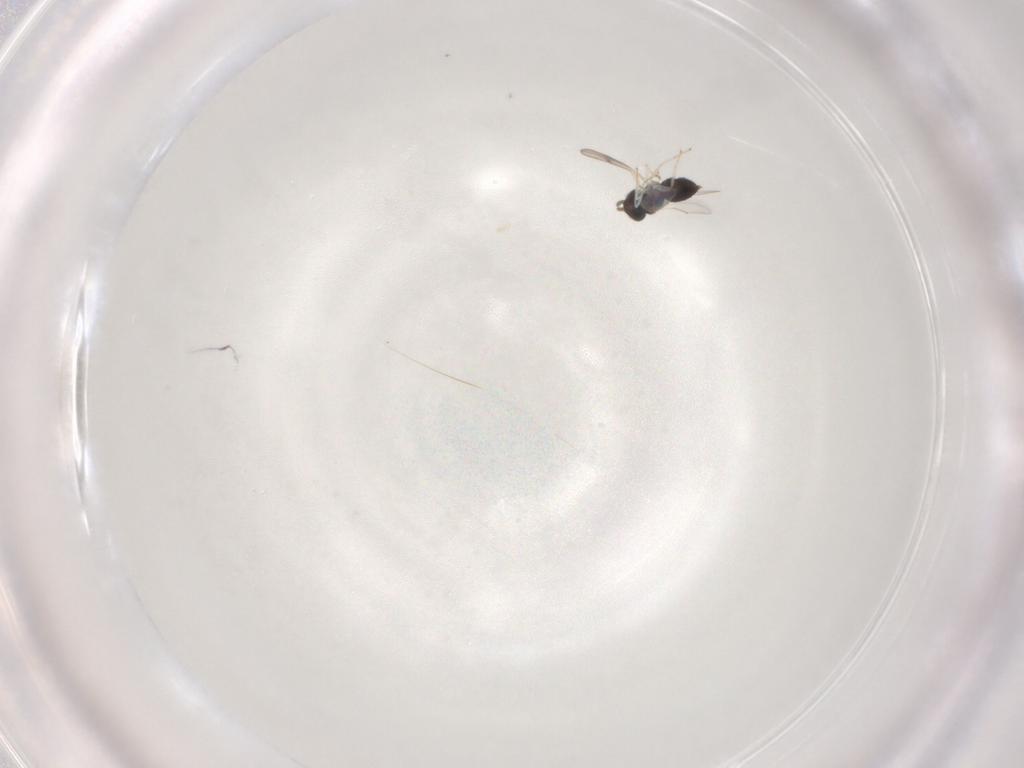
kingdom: Animalia
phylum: Arthropoda
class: Insecta
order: Hymenoptera
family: Eulophidae
